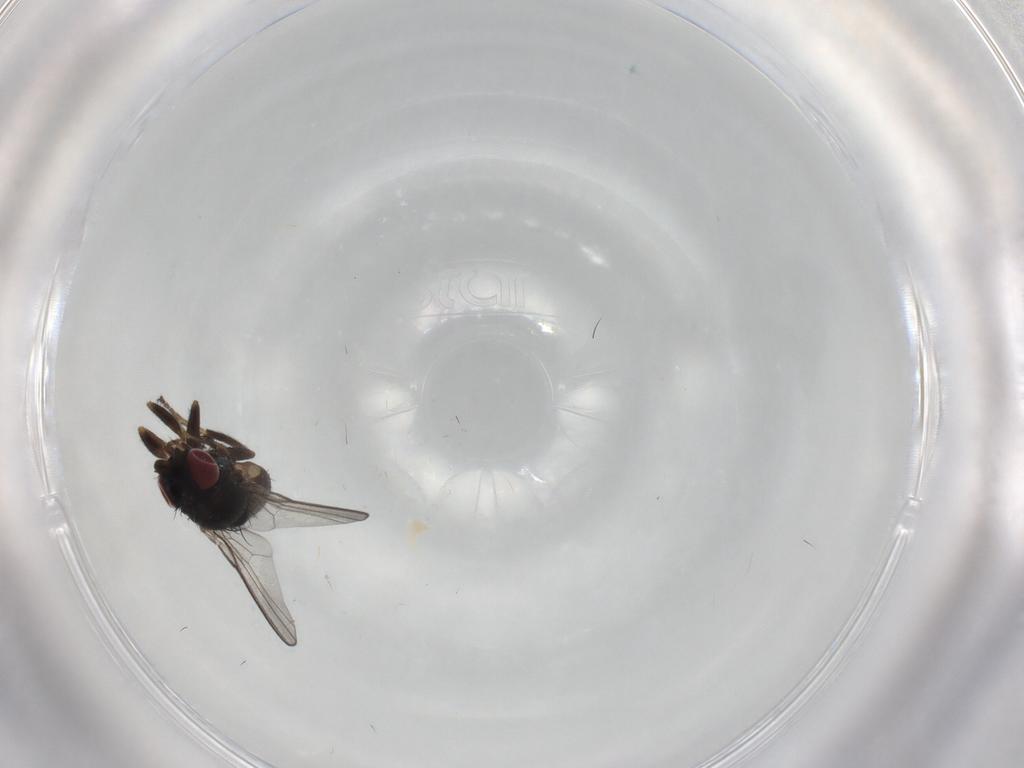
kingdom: Animalia
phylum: Arthropoda
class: Insecta
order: Diptera
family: Milichiidae
